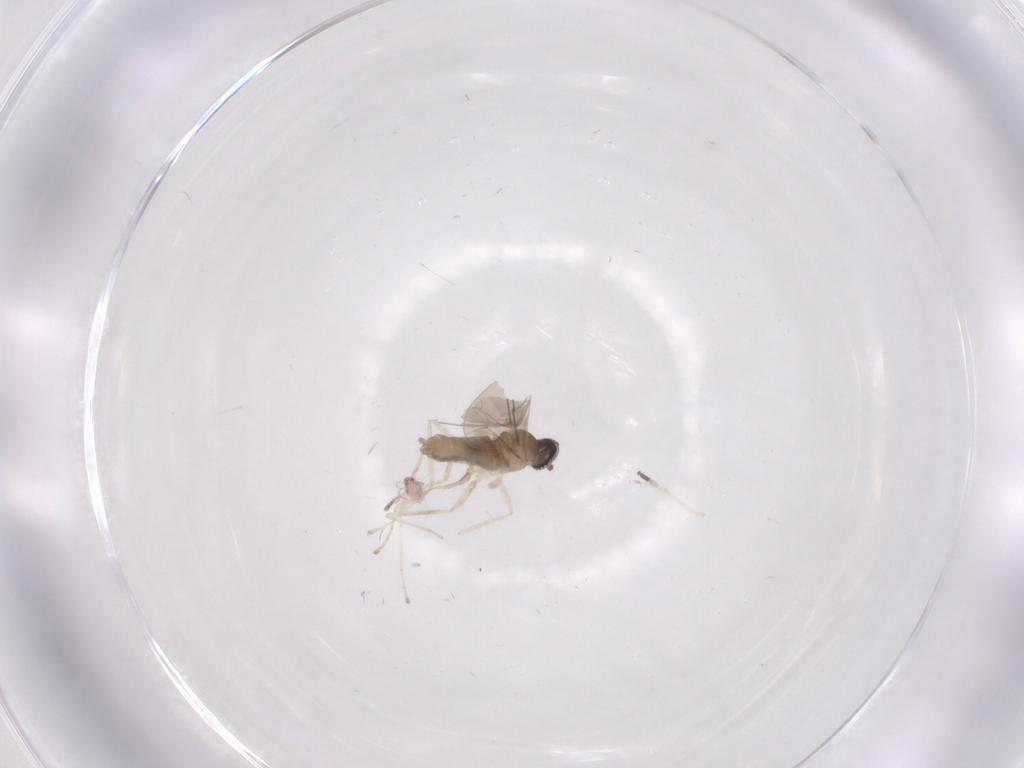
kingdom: Animalia
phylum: Arthropoda
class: Insecta
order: Diptera
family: Cecidomyiidae
